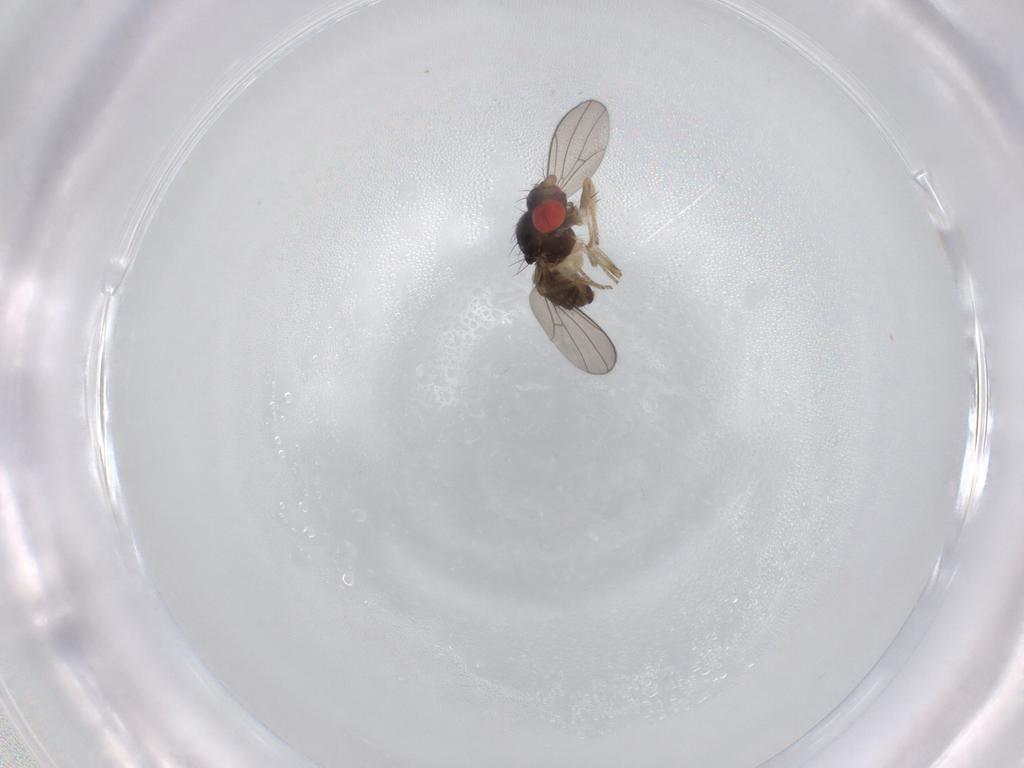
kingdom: Animalia
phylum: Arthropoda
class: Insecta
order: Diptera
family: Drosophilidae
